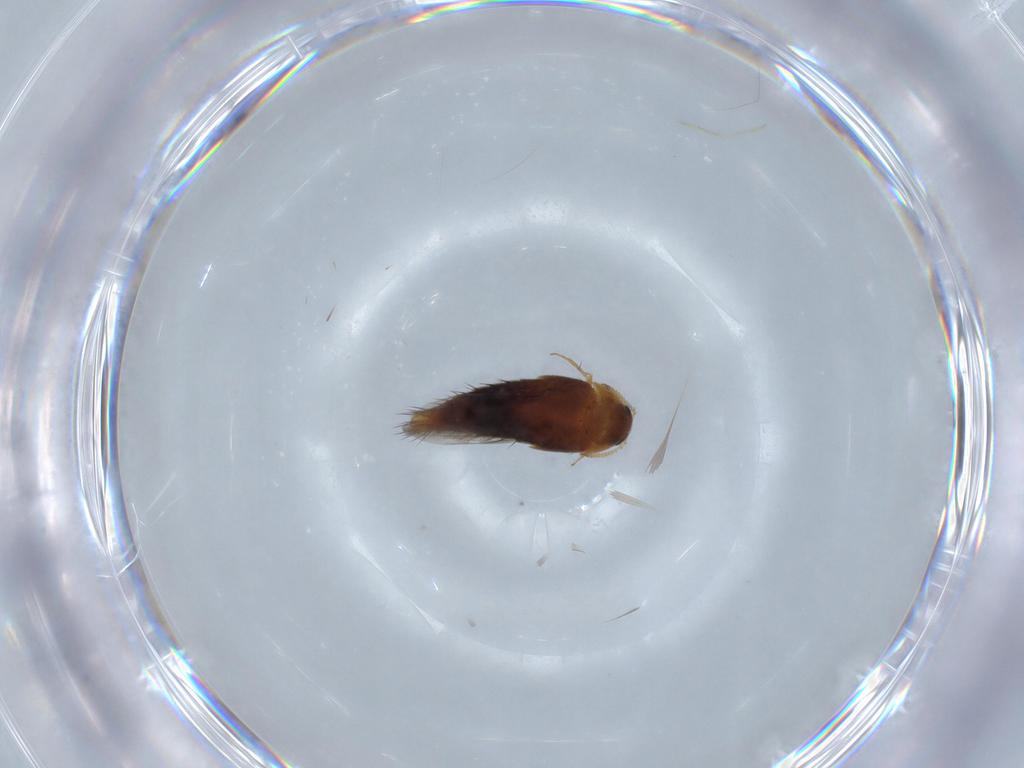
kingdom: Animalia
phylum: Arthropoda
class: Insecta
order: Coleoptera
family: Staphylinidae
